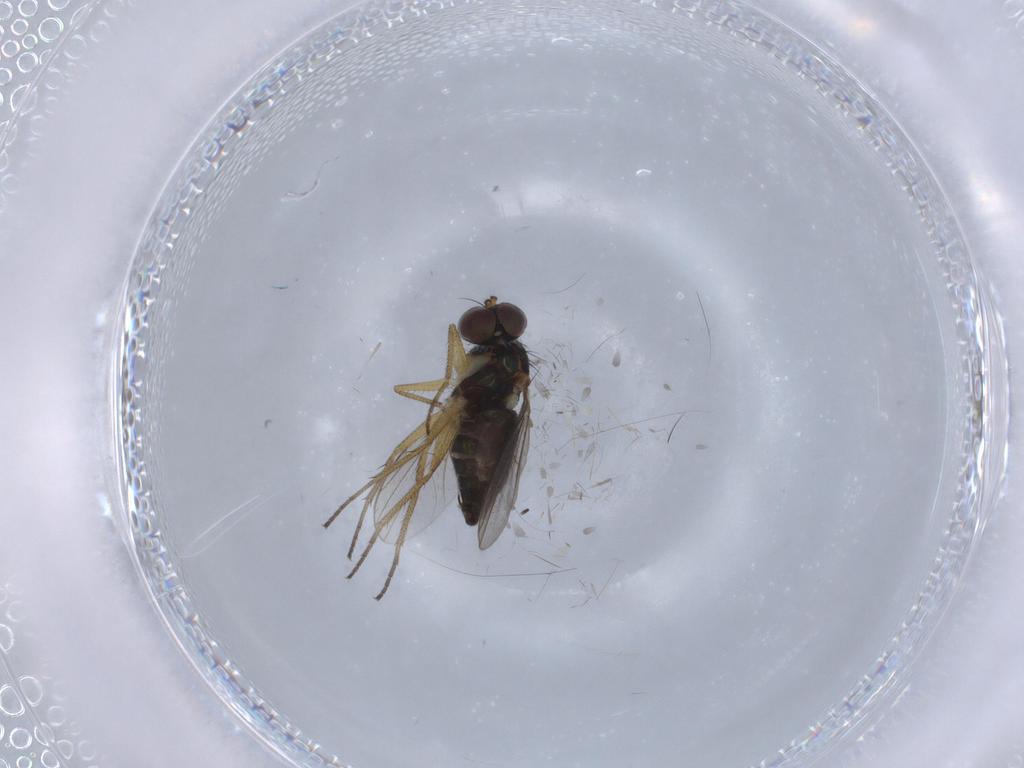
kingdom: Animalia
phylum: Arthropoda
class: Insecta
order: Diptera
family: Dolichopodidae
